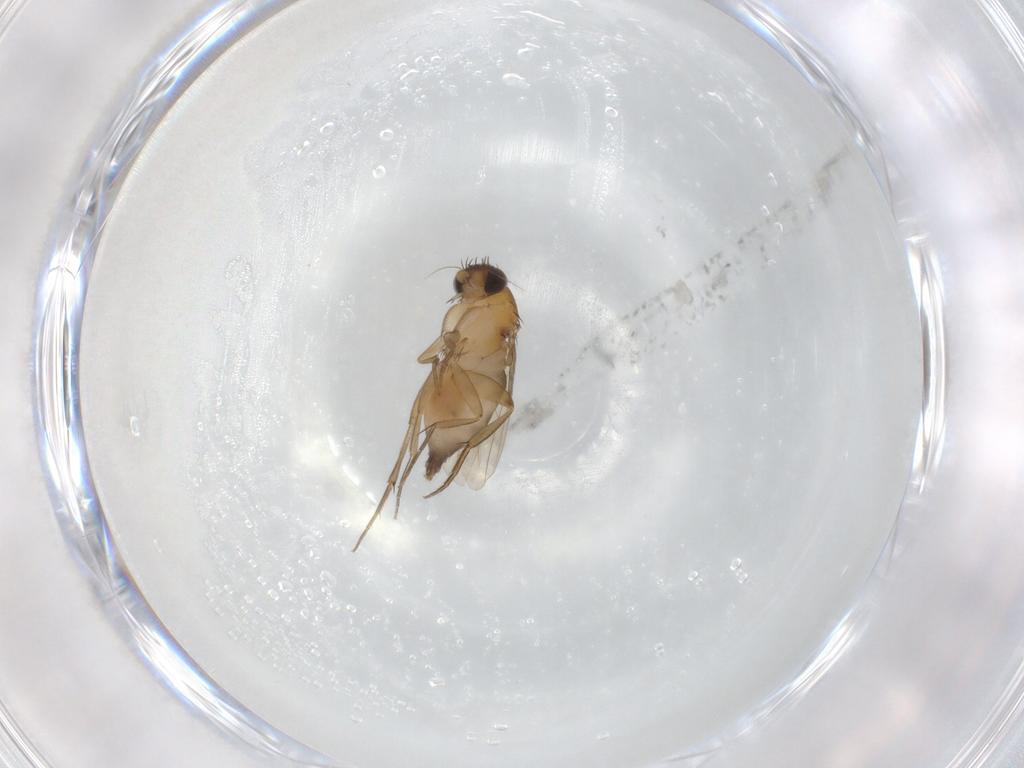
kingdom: Animalia
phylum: Arthropoda
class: Insecta
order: Diptera
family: Phoridae
